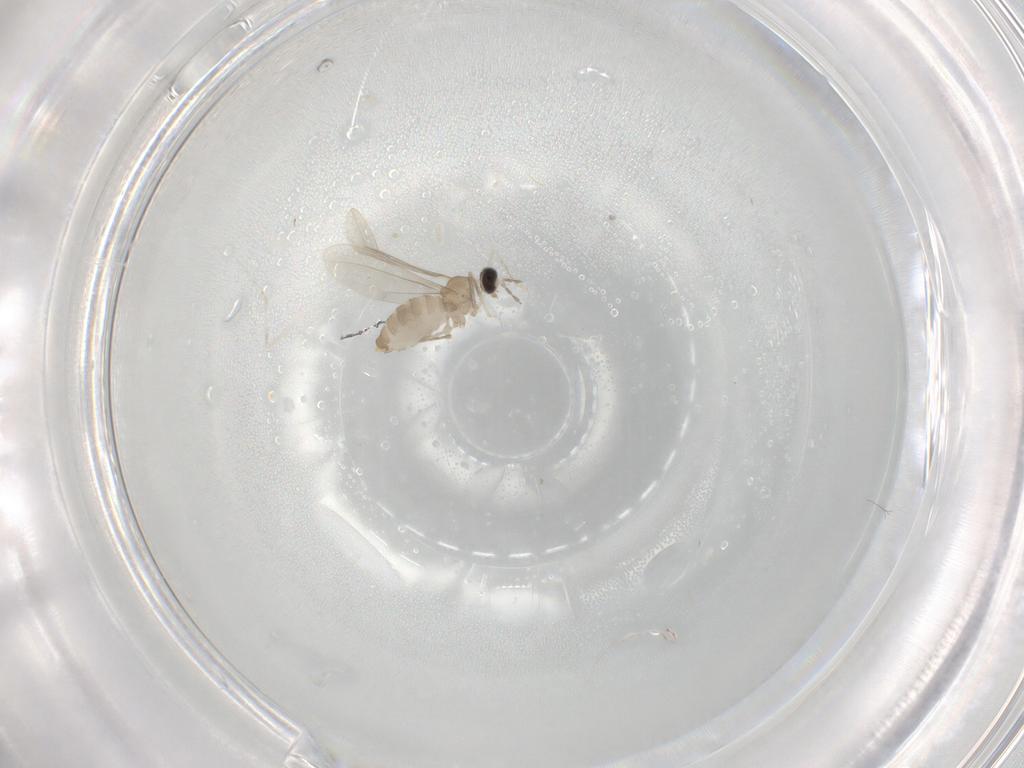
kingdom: Animalia
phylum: Arthropoda
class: Insecta
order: Diptera
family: Cecidomyiidae
